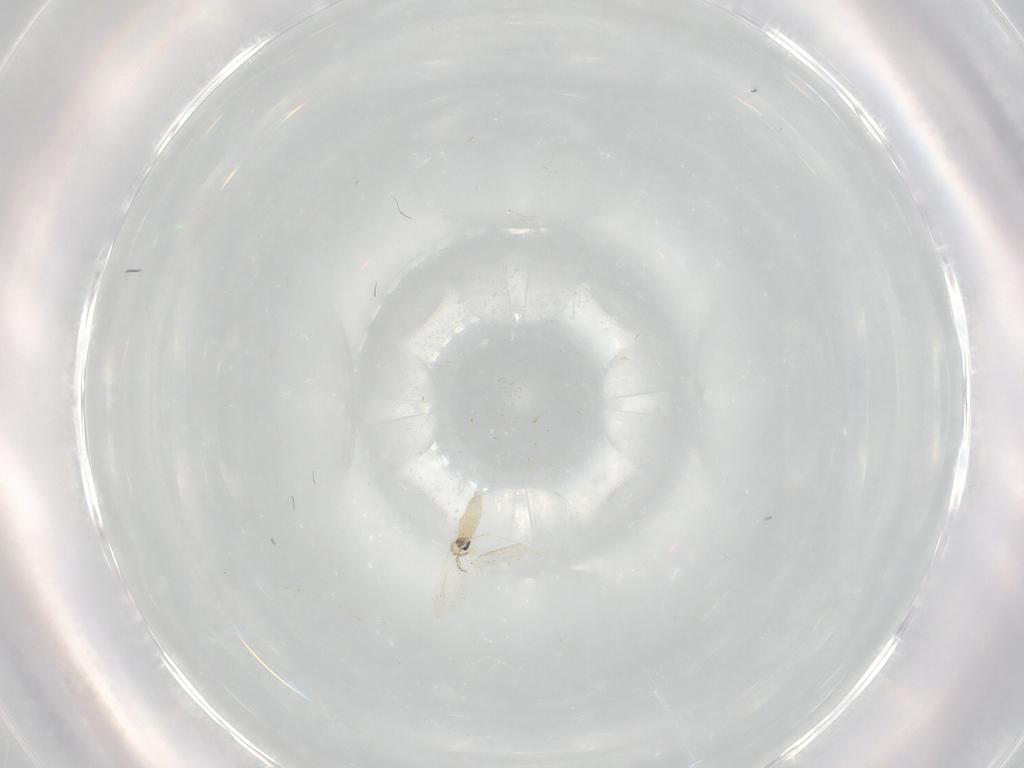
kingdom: Animalia
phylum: Arthropoda
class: Insecta
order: Diptera
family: Cecidomyiidae
